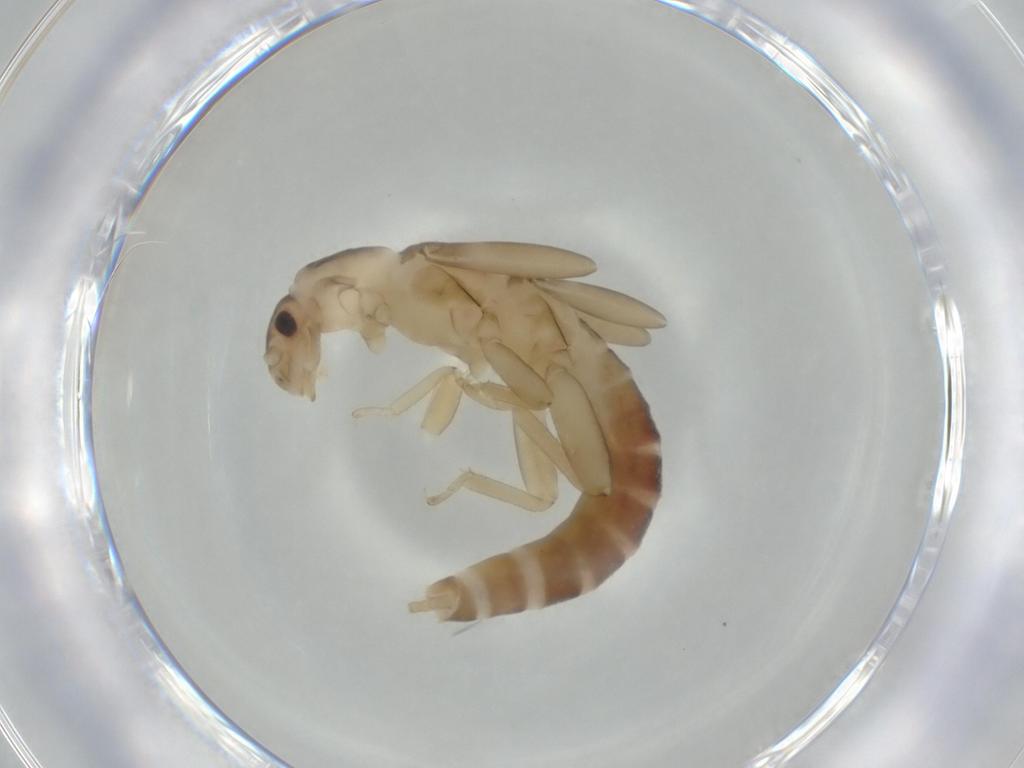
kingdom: Animalia
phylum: Arthropoda
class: Insecta
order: Plecoptera
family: Leuctridae
